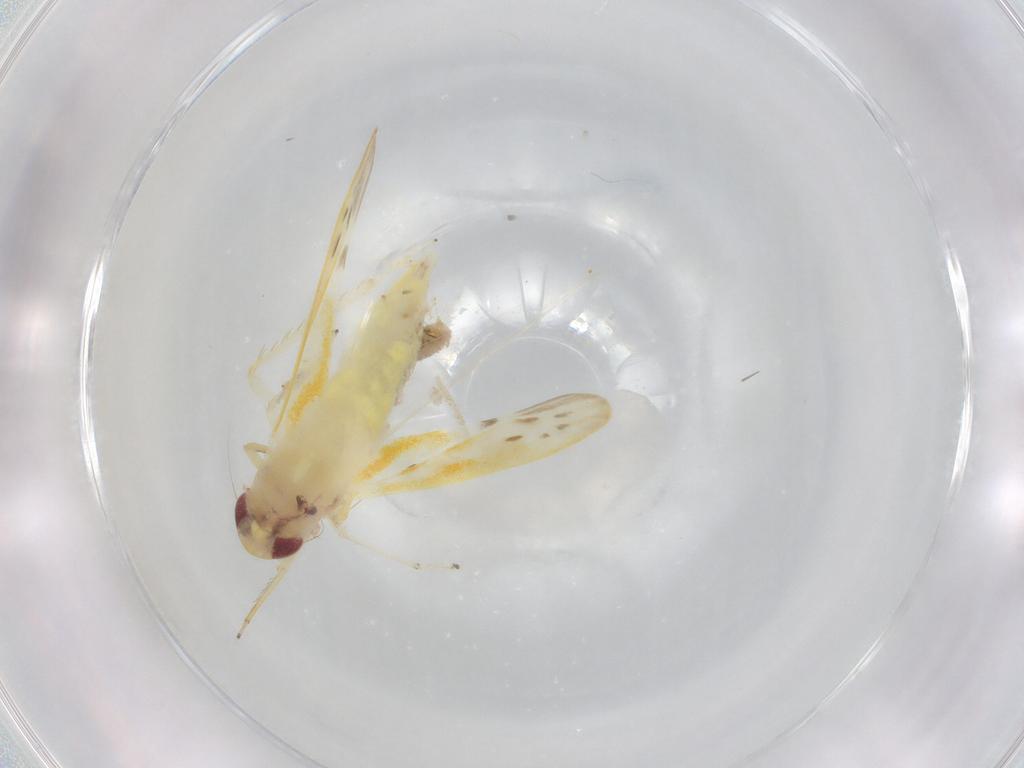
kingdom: Animalia
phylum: Arthropoda
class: Insecta
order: Hemiptera
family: Cicadellidae
